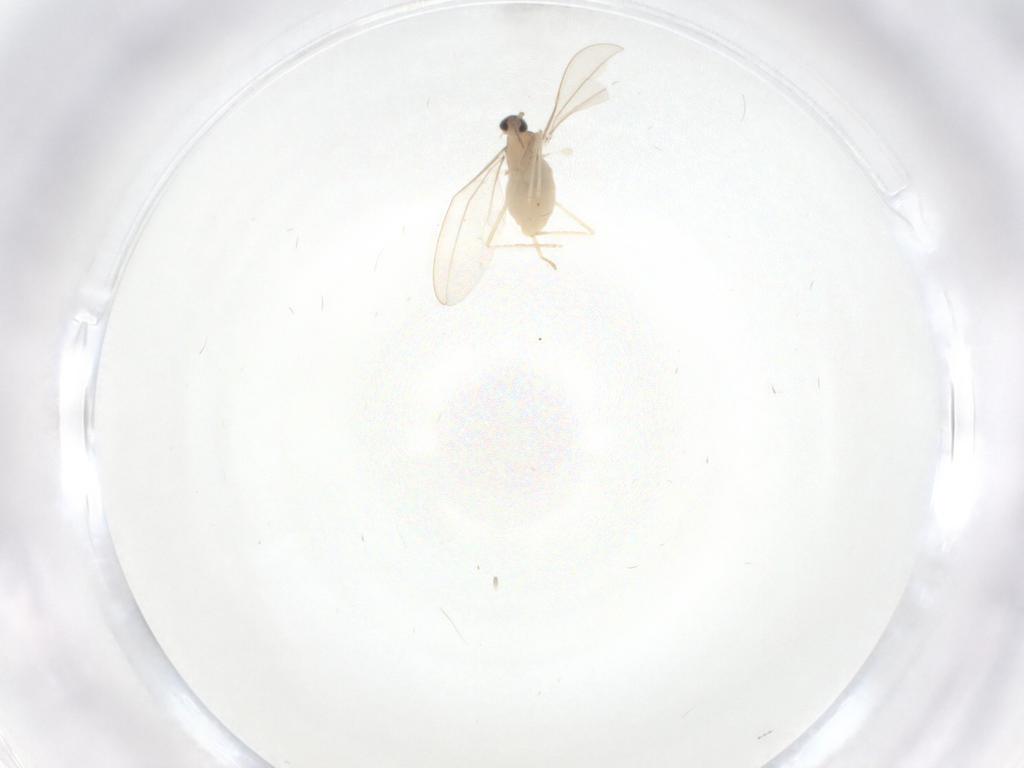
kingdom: Animalia
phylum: Arthropoda
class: Insecta
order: Diptera
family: Cecidomyiidae
